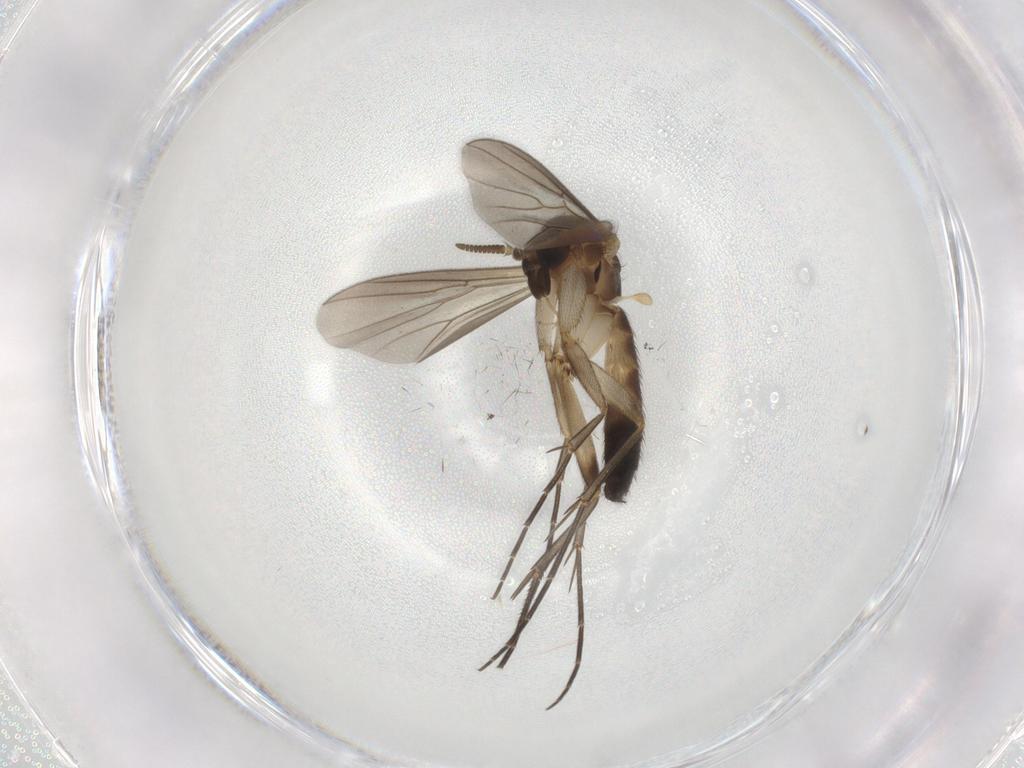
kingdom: Animalia
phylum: Arthropoda
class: Insecta
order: Diptera
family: Mycetophilidae
